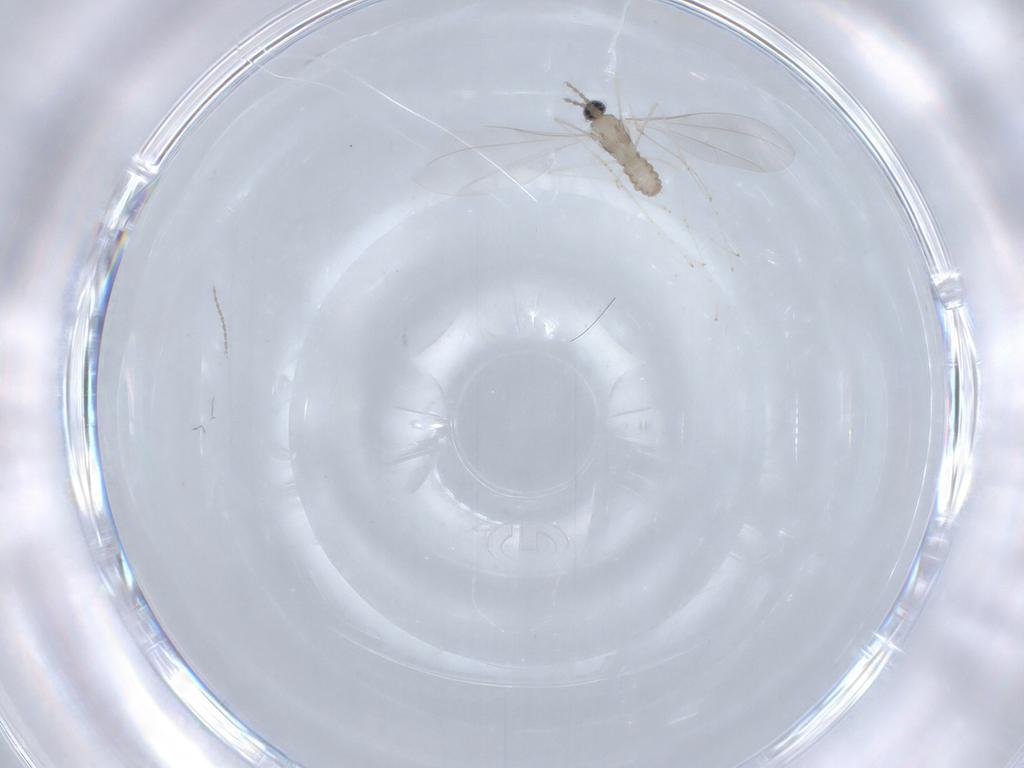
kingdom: Animalia
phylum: Arthropoda
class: Insecta
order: Diptera
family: Cecidomyiidae
